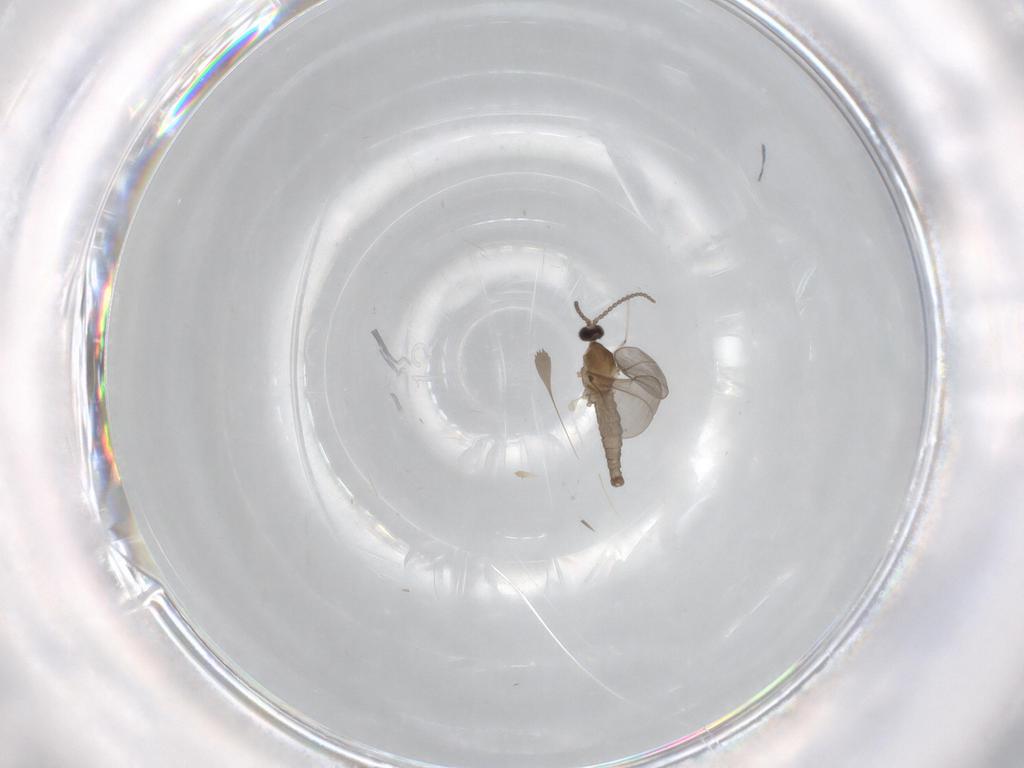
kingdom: Animalia
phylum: Arthropoda
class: Insecta
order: Diptera
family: Cecidomyiidae
